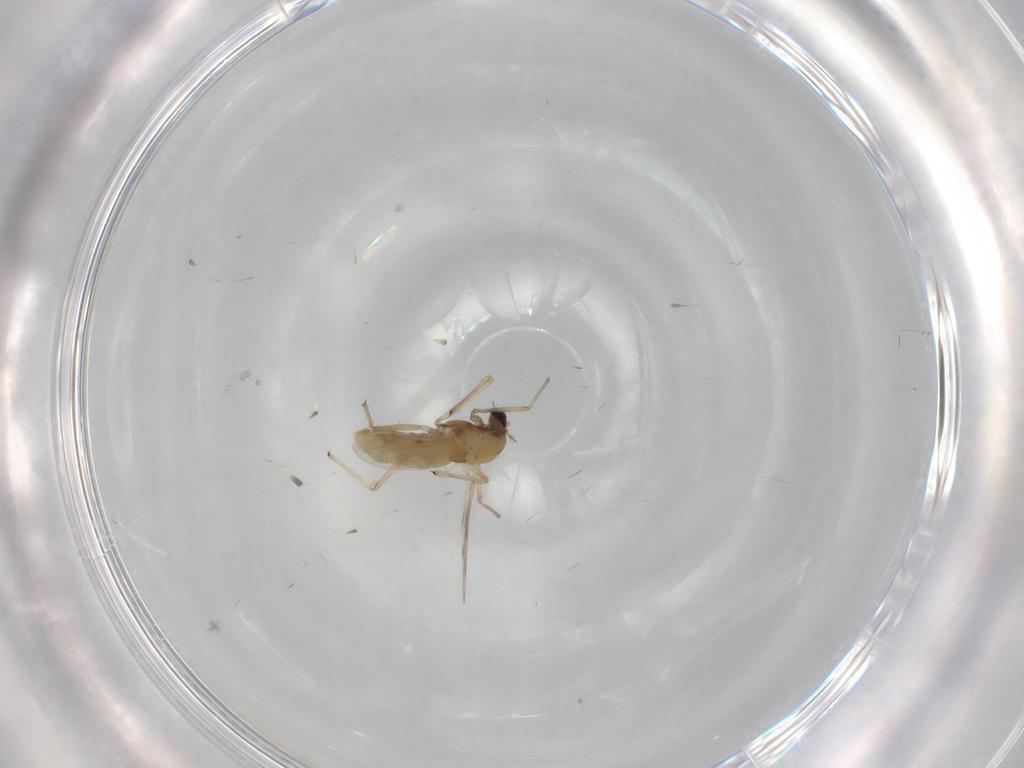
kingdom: Animalia
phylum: Arthropoda
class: Insecta
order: Diptera
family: Chironomidae
